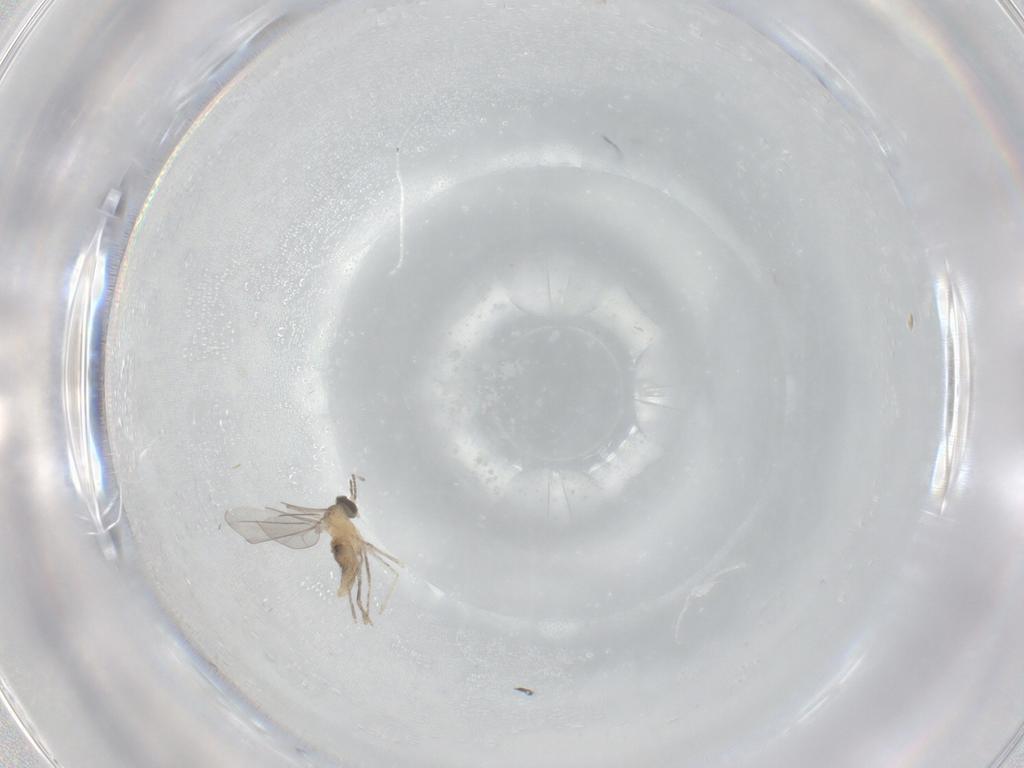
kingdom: Animalia
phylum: Arthropoda
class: Insecta
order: Diptera
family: Cecidomyiidae
